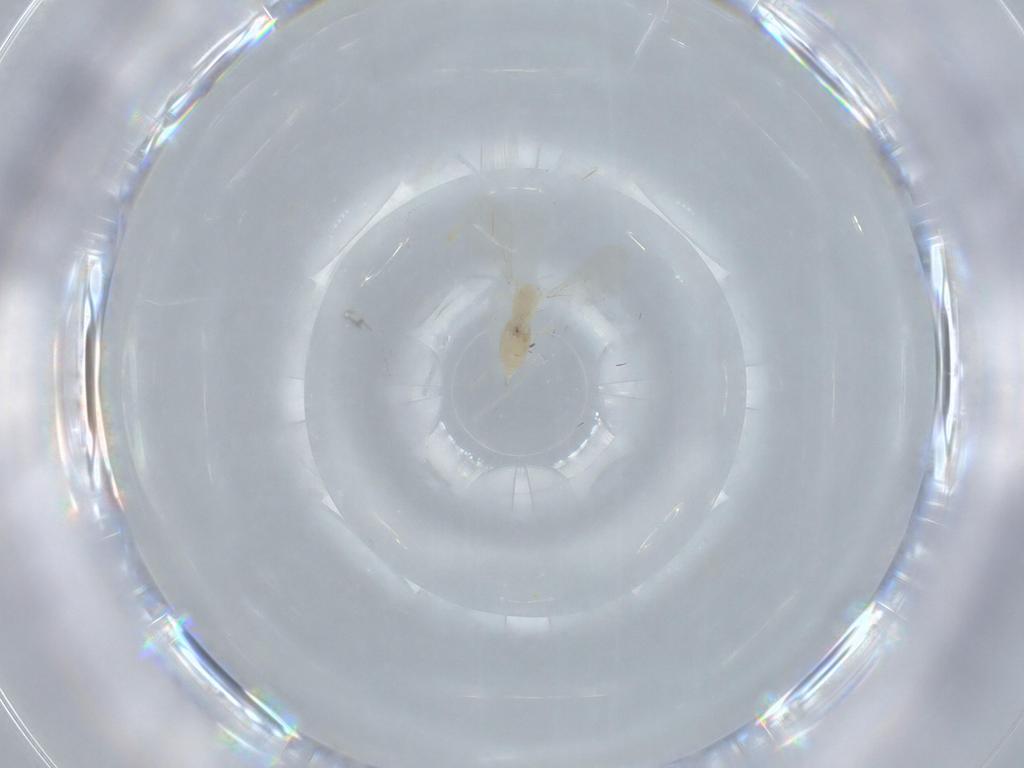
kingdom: Animalia
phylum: Arthropoda
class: Insecta
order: Diptera
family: Cecidomyiidae
